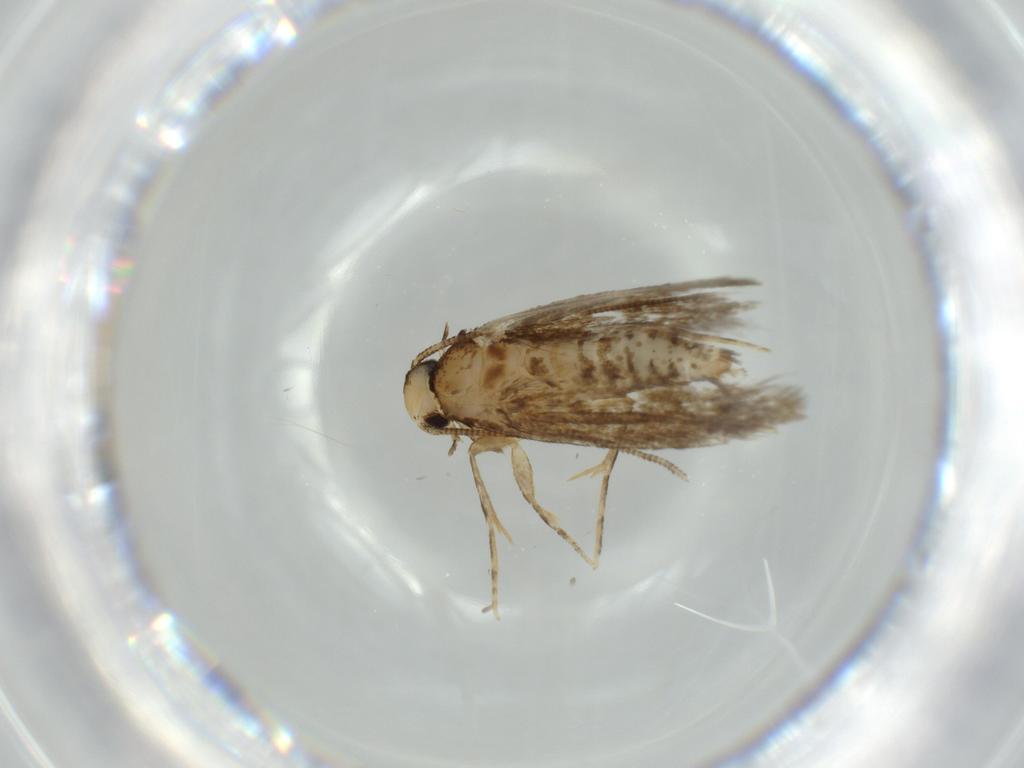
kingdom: Animalia
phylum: Arthropoda
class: Insecta
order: Lepidoptera
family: Tineidae
